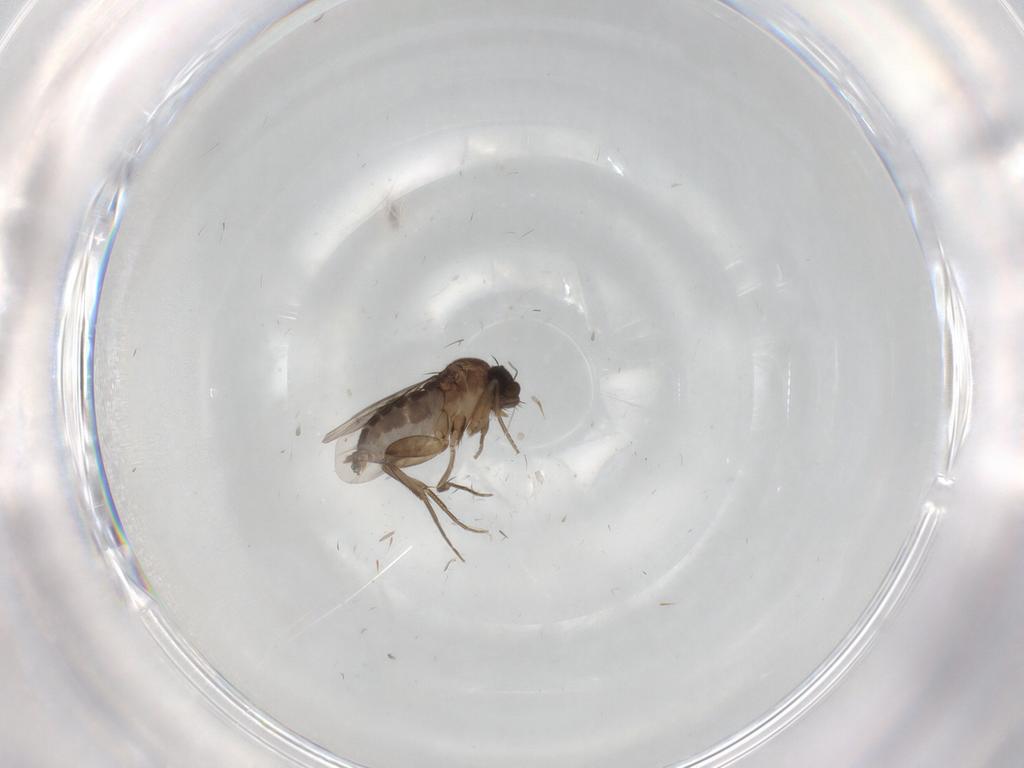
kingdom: Animalia
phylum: Arthropoda
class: Insecta
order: Diptera
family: Phoridae
